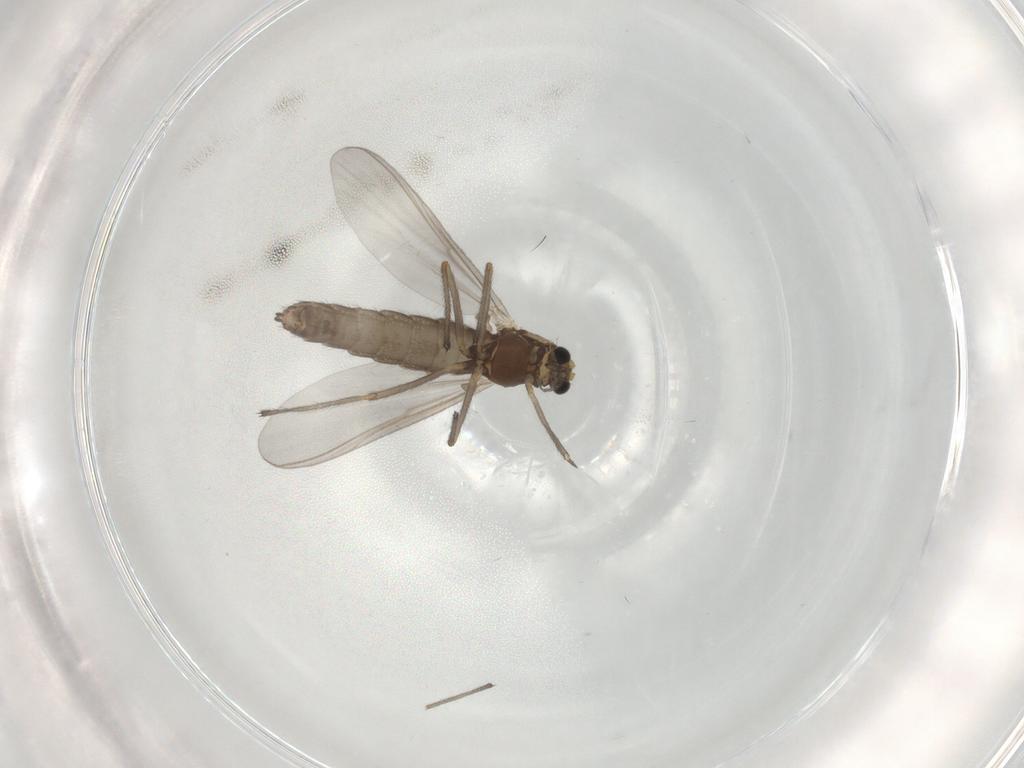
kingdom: Animalia
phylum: Arthropoda
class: Insecta
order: Diptera
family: Chironomidae
